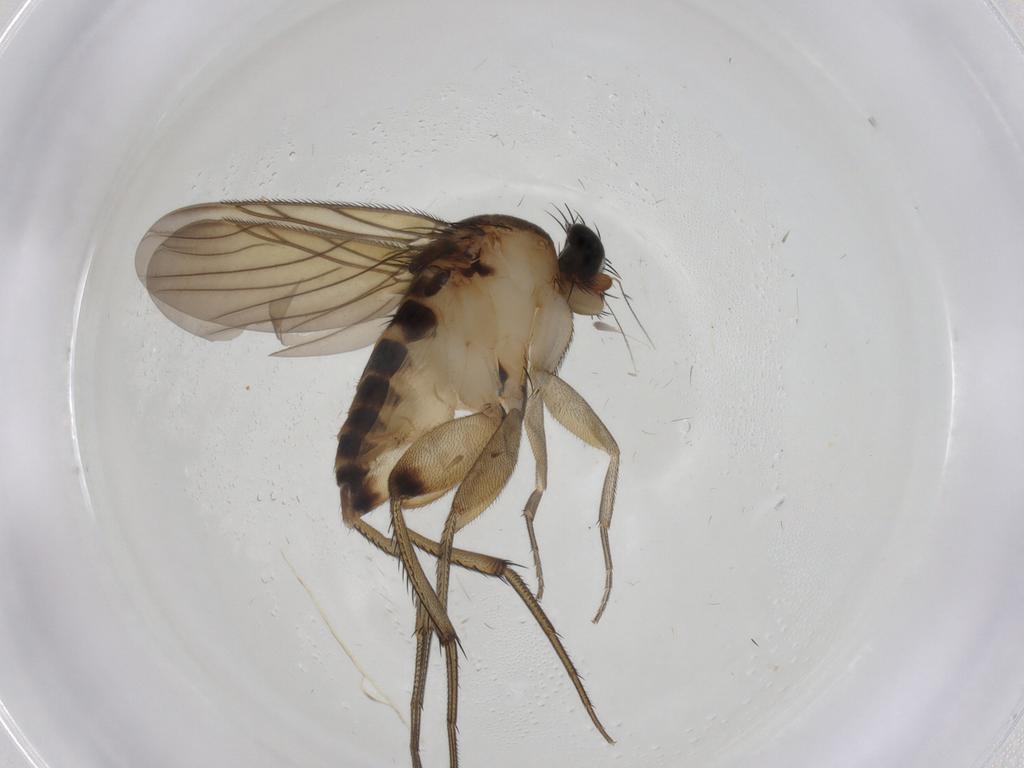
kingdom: Animalia
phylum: Arthropoda
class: Insecta
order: Diptera
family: Phoridae
